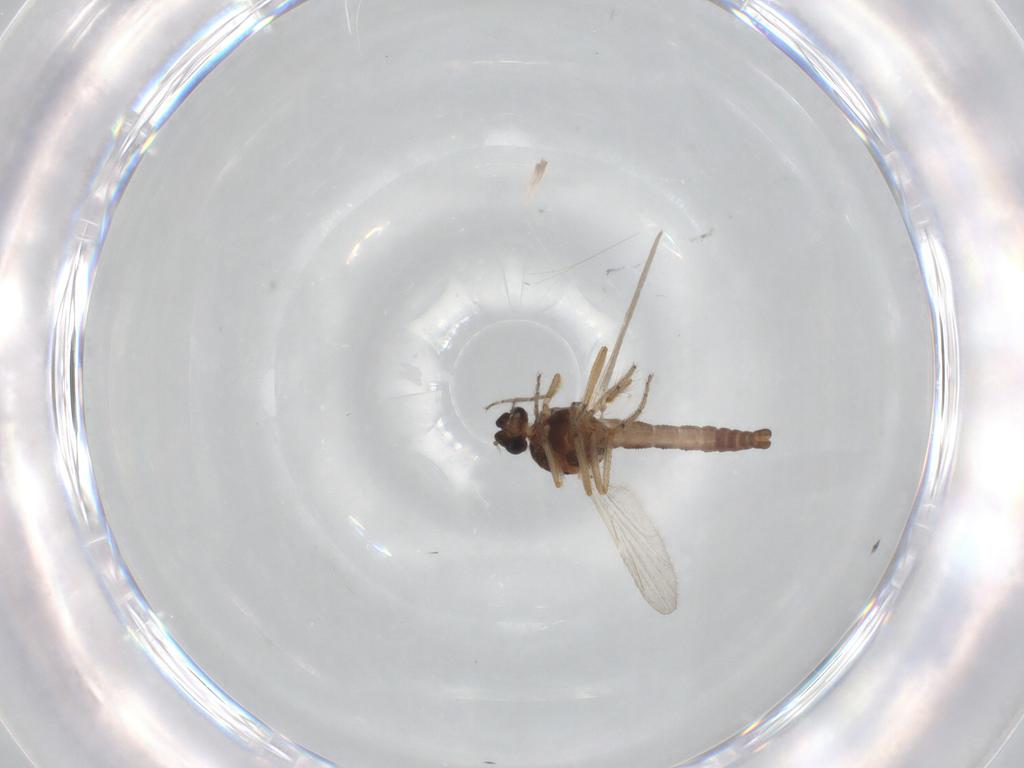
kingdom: Animalia
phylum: Arthropoda
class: Insecta
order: Diptera
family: Ceratopogonidae
